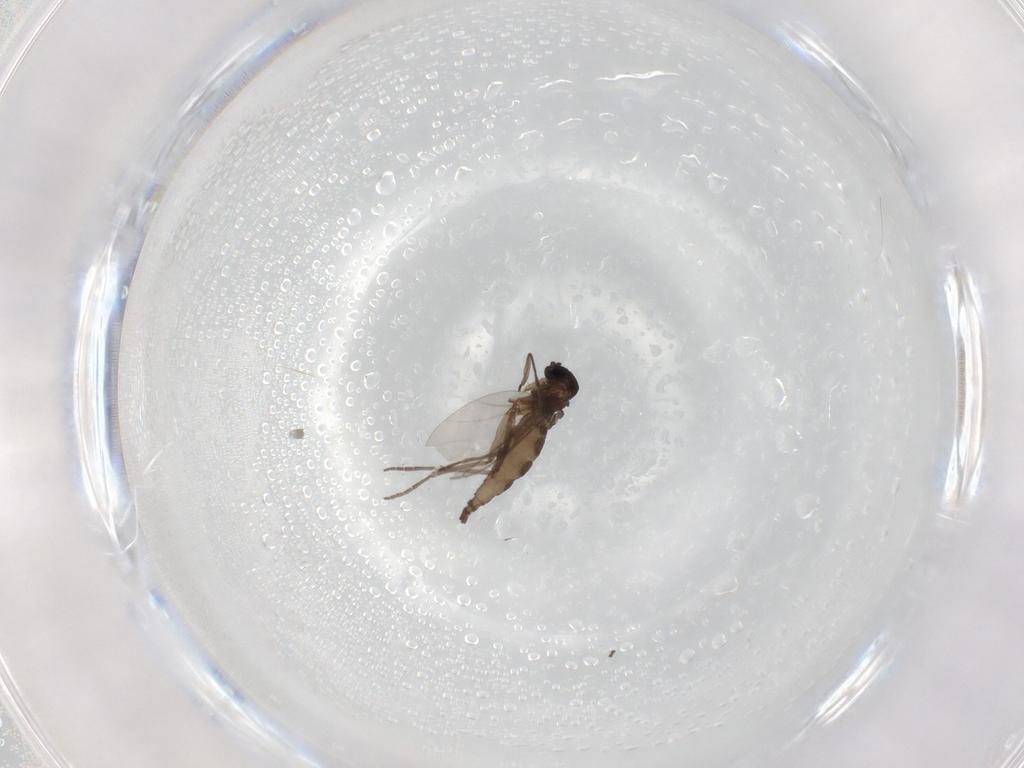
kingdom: Animalia
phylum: Arthropoda
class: Insecta
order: Diptera
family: Sciaridae
